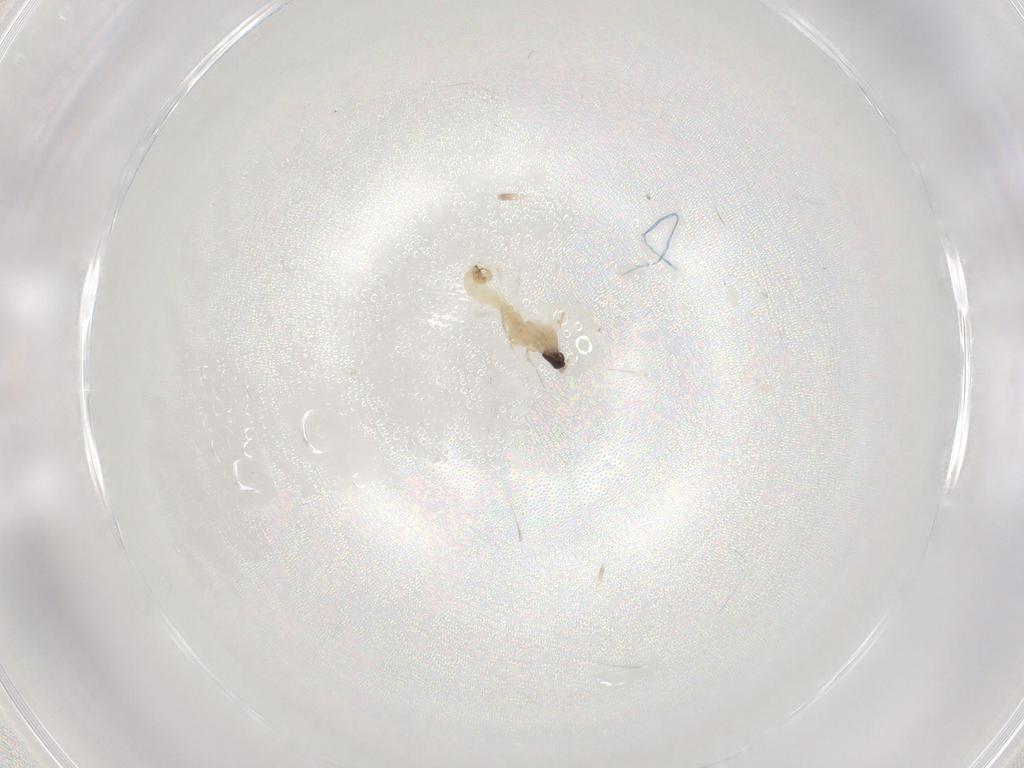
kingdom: Animalia
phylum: Arthropoda
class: Insecta
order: Diptera
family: Cecidomyiidae
